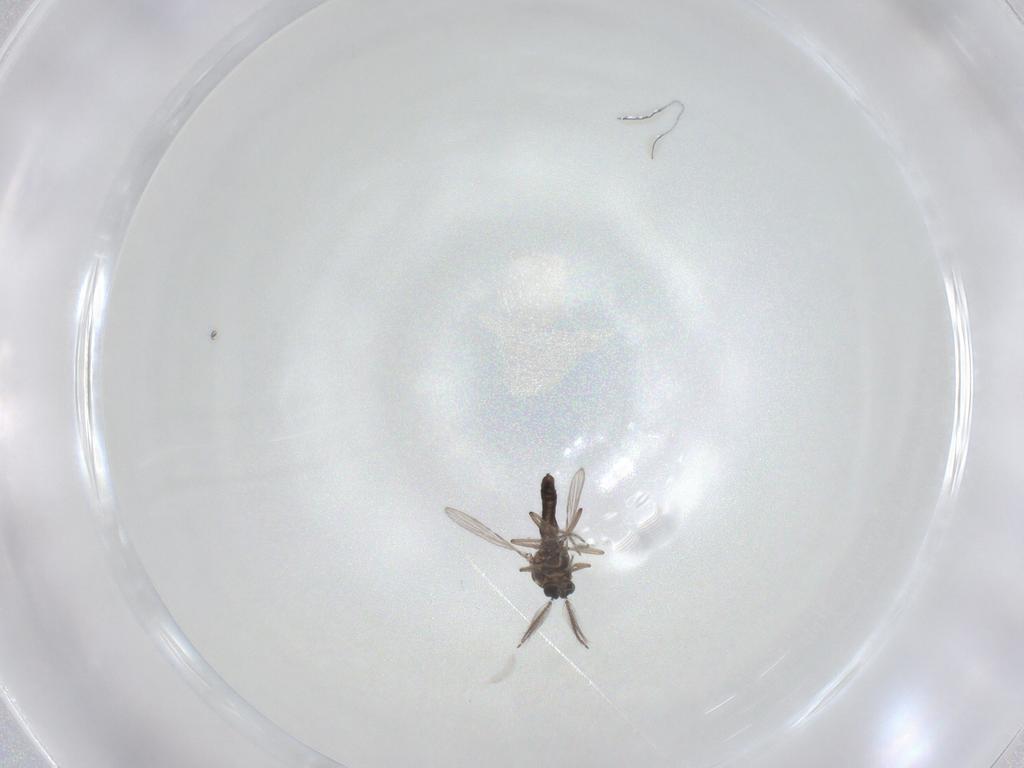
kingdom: Animalia
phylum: Arthropoda
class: Insecta
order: Diptera
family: Ceratopogonidae
